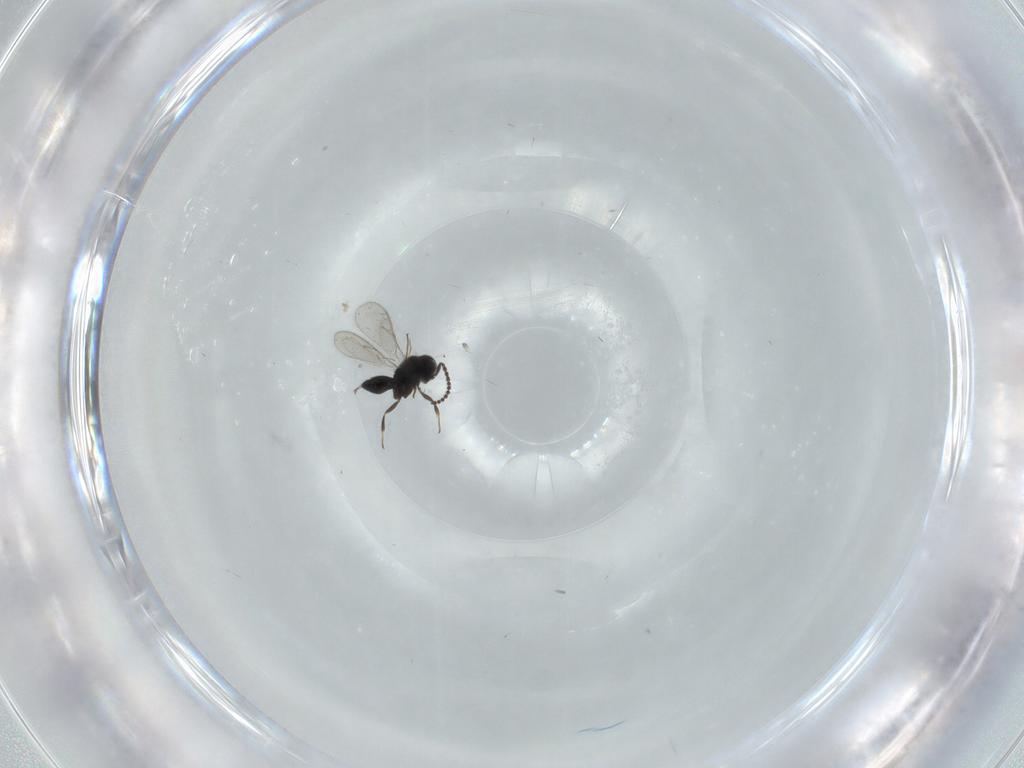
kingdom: Animalia
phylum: Arthropoda
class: Insecta
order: Hymenoptera
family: Scelionidae
